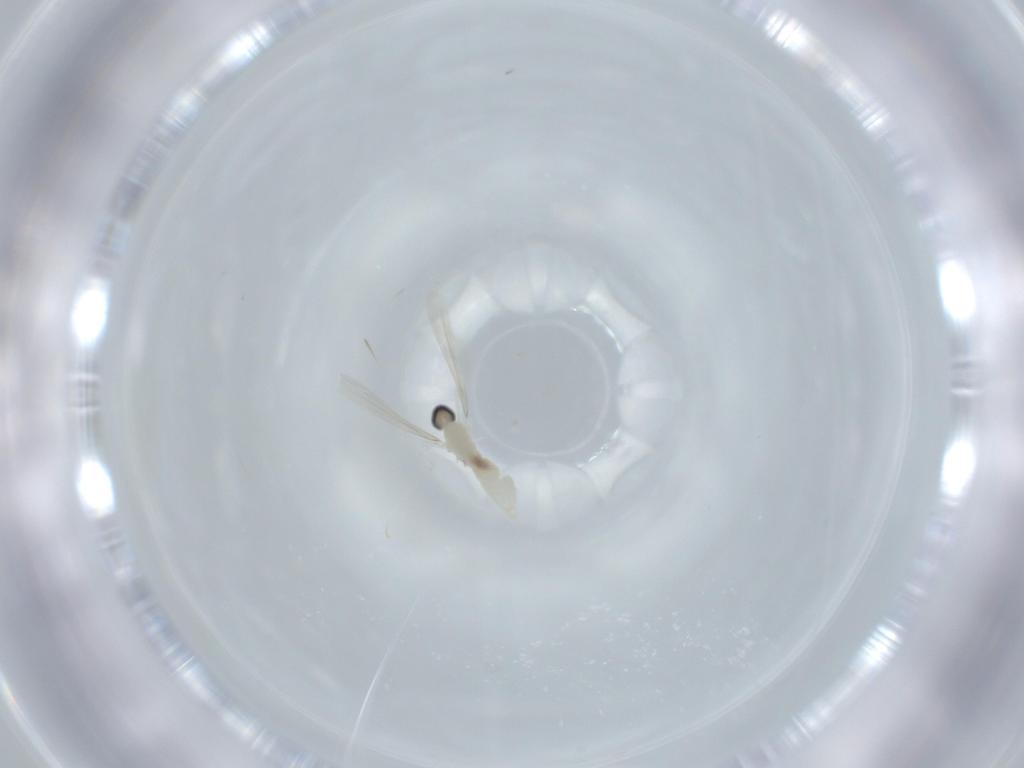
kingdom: Animalia
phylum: Arthropoda
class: Insecta
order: Diptera
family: Cecidomyiidae
